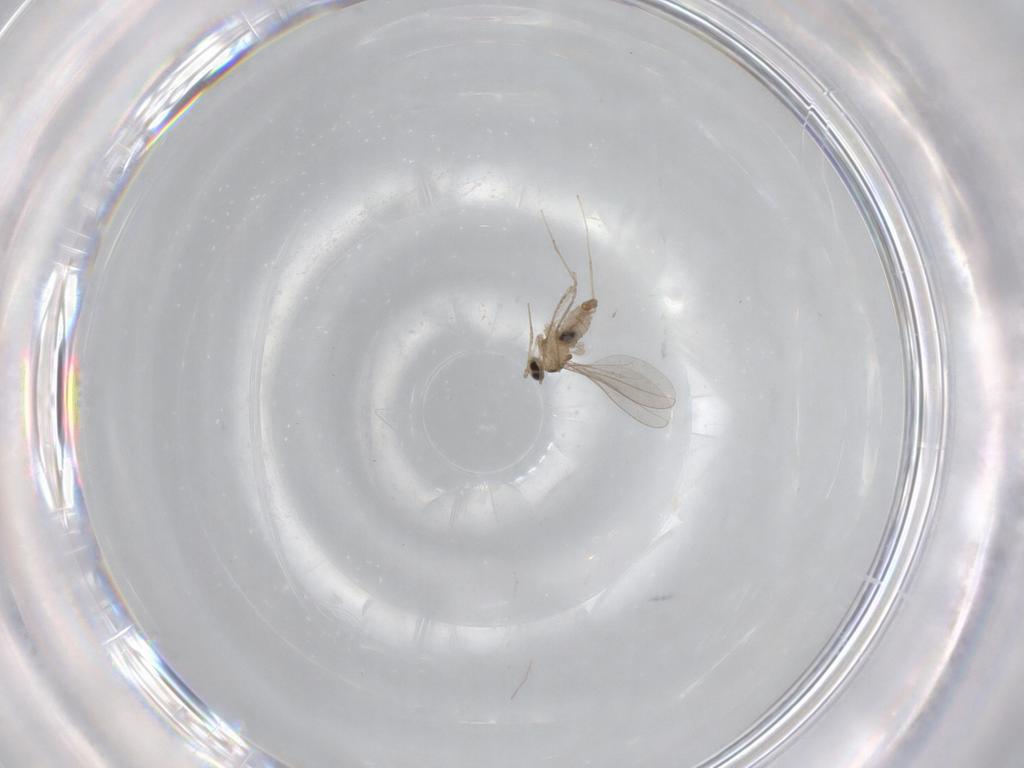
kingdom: Animalia
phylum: Arthropoda
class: Insecta
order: Diptera
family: Cecidomyiidae
